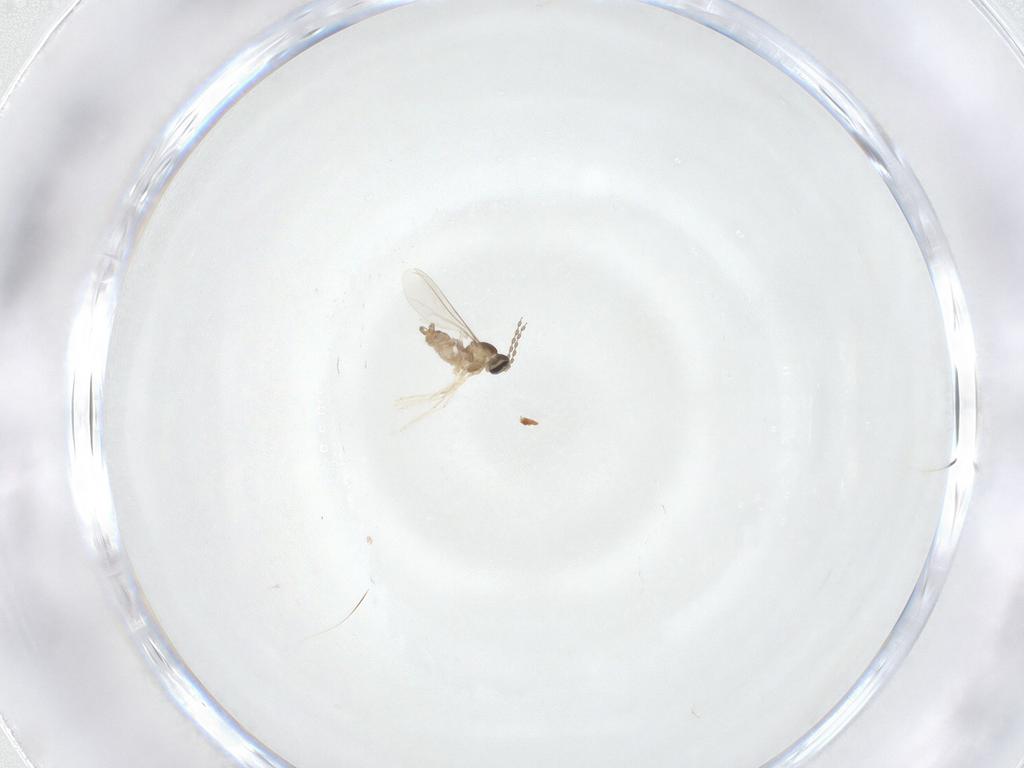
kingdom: Animalia
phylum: Arthropoda
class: Insecta
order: Diptera
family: Cecidomyiidae
